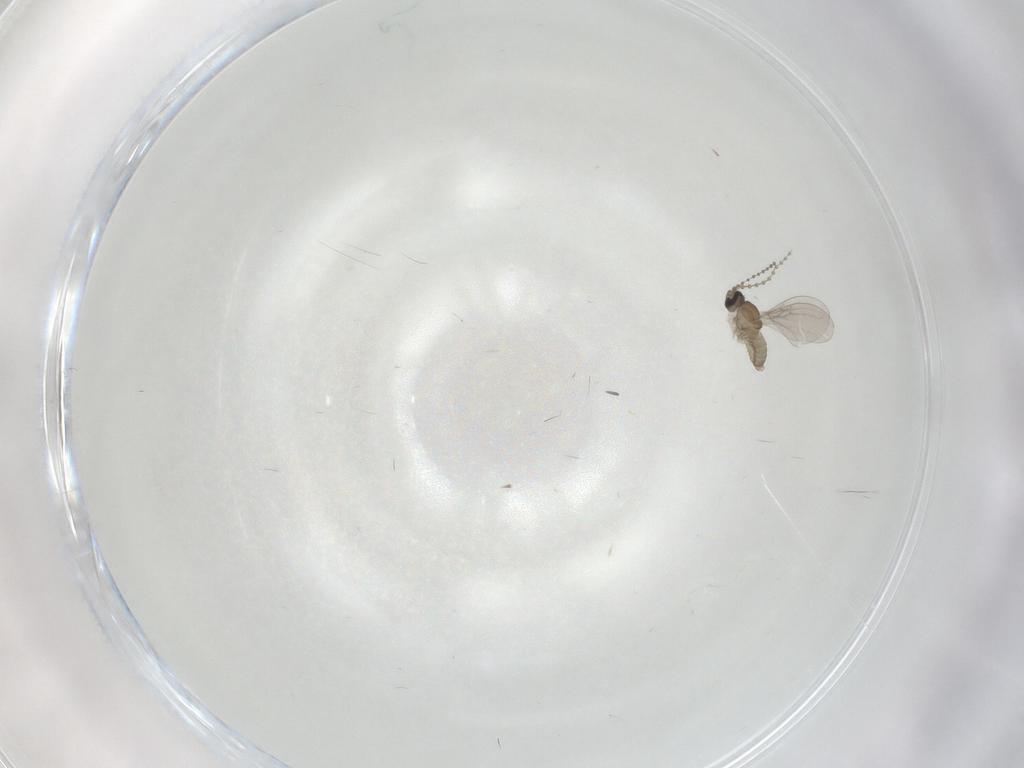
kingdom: Animalia
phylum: Arthropoda
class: Insecta
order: Diptera
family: Cecidomyiidae
